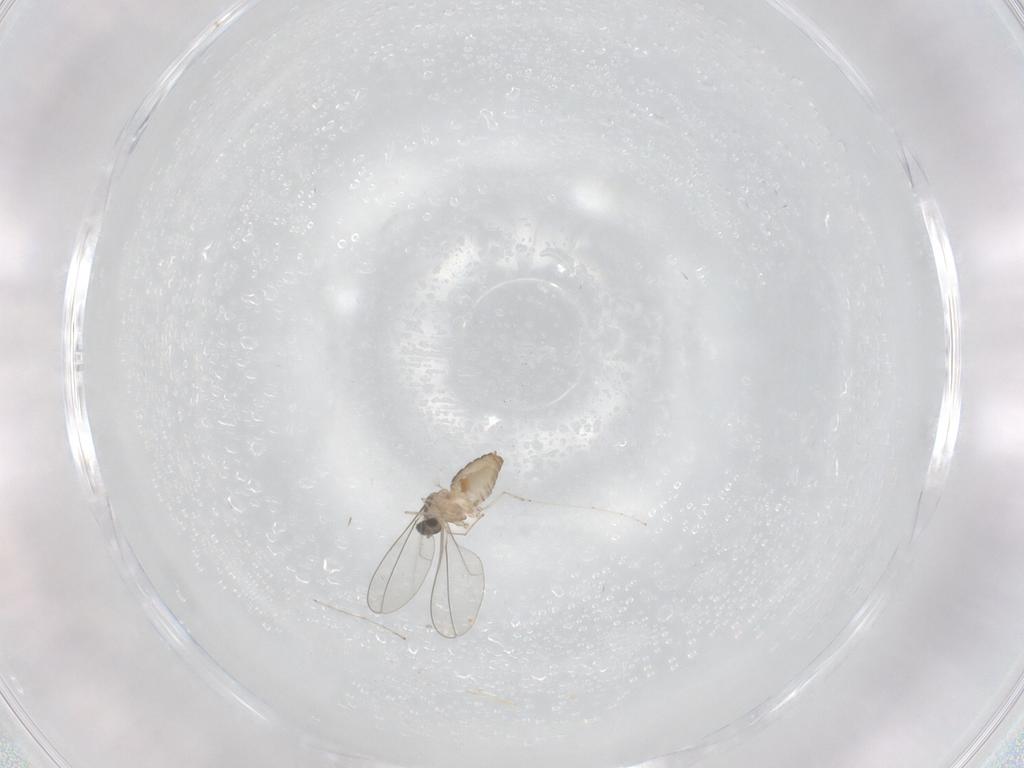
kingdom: Animalia
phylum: Arthropoda
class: Insecta
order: Diptera
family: Cecidomyiidae
